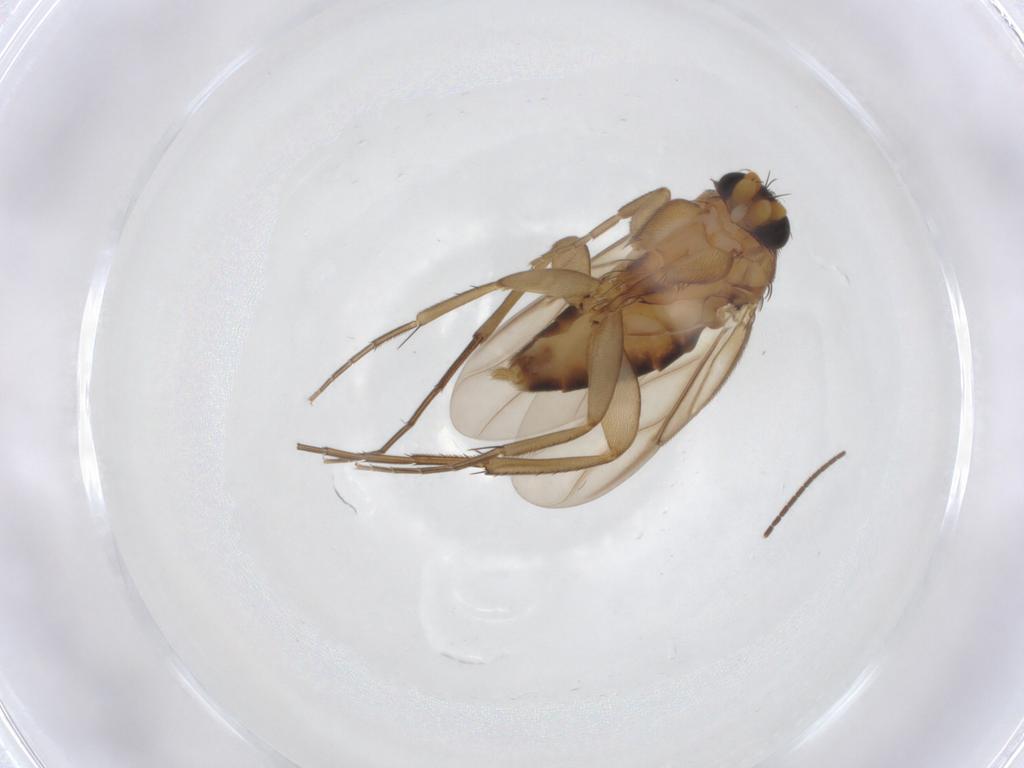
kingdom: Animalia
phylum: Arthropoda
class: Insecta
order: Diptera
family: Sciaridae
